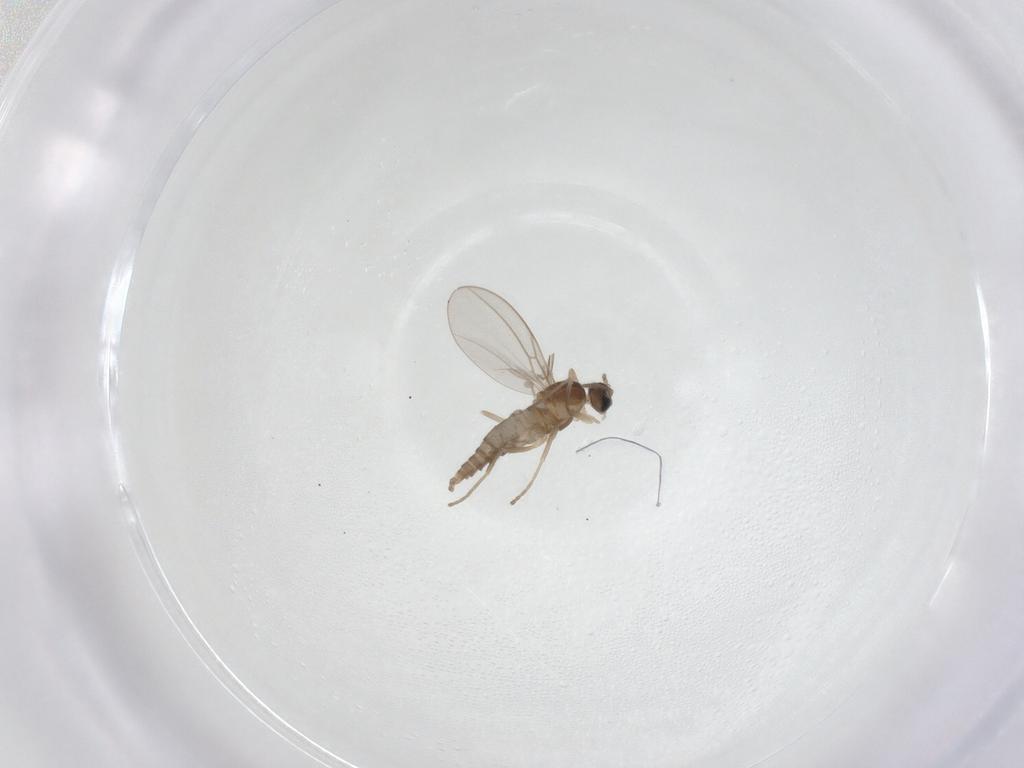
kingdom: Animalia
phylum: Arthropoda
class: Insecta
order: Diptera
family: Cecidomyiidae
